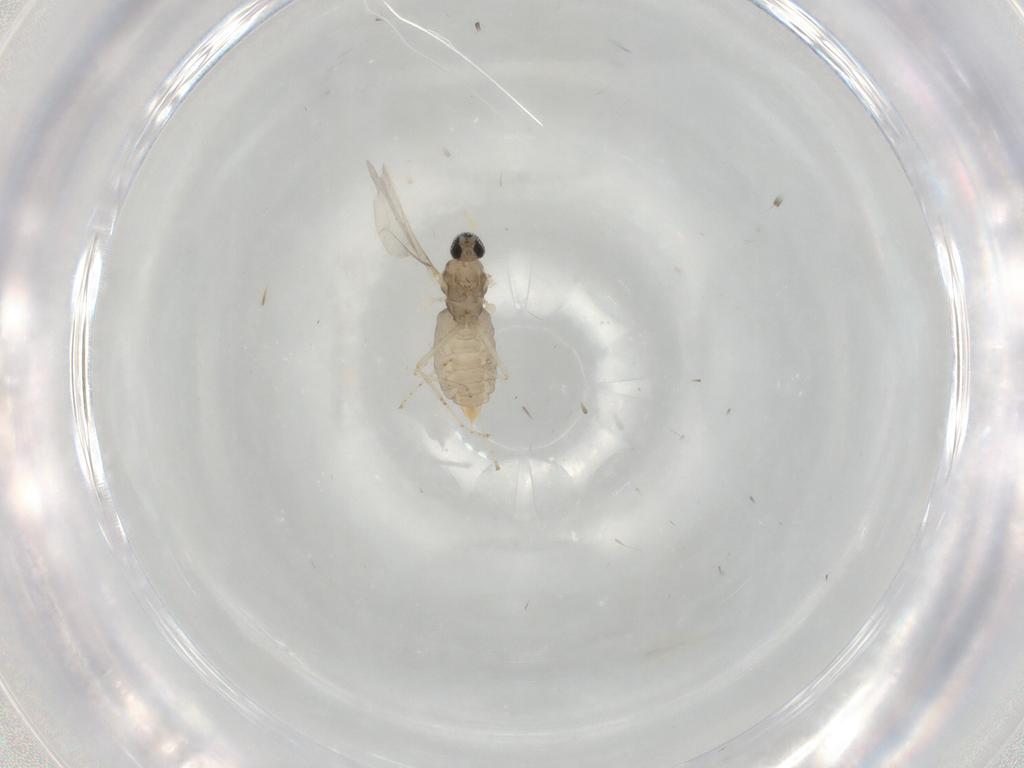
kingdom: Animalia
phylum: Arthropoda
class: Insecta
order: Diptera
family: Cecidomyiidae
